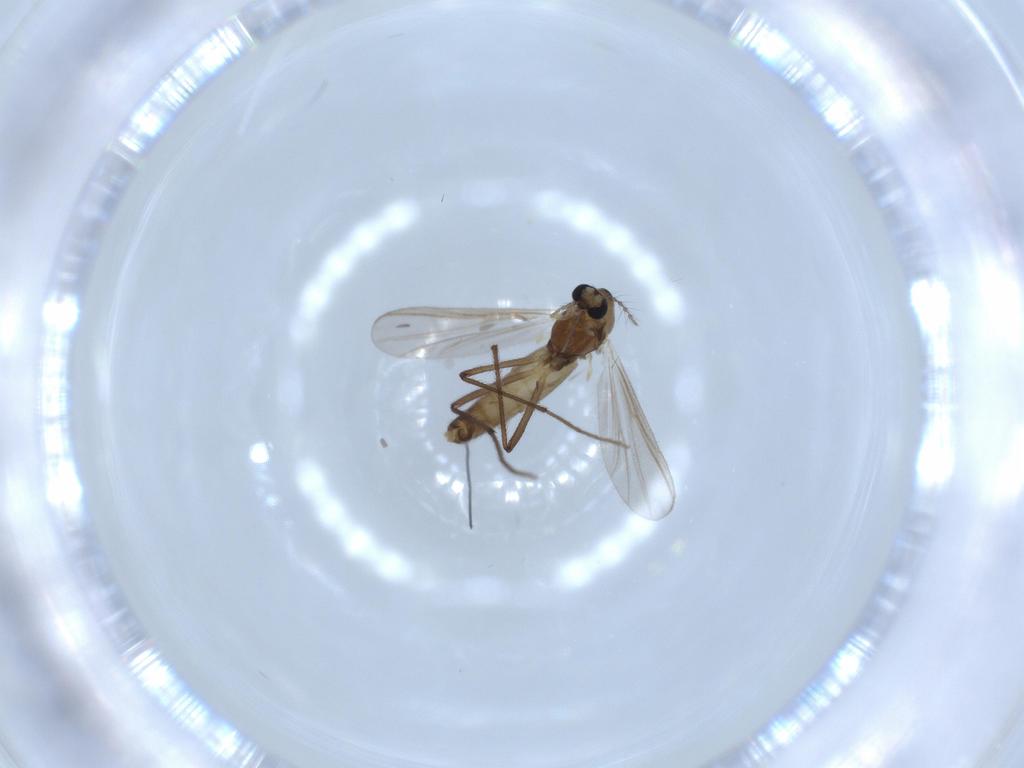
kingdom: Animalia
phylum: Arthropoda
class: Insecta
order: Diptera
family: Chironomidae
